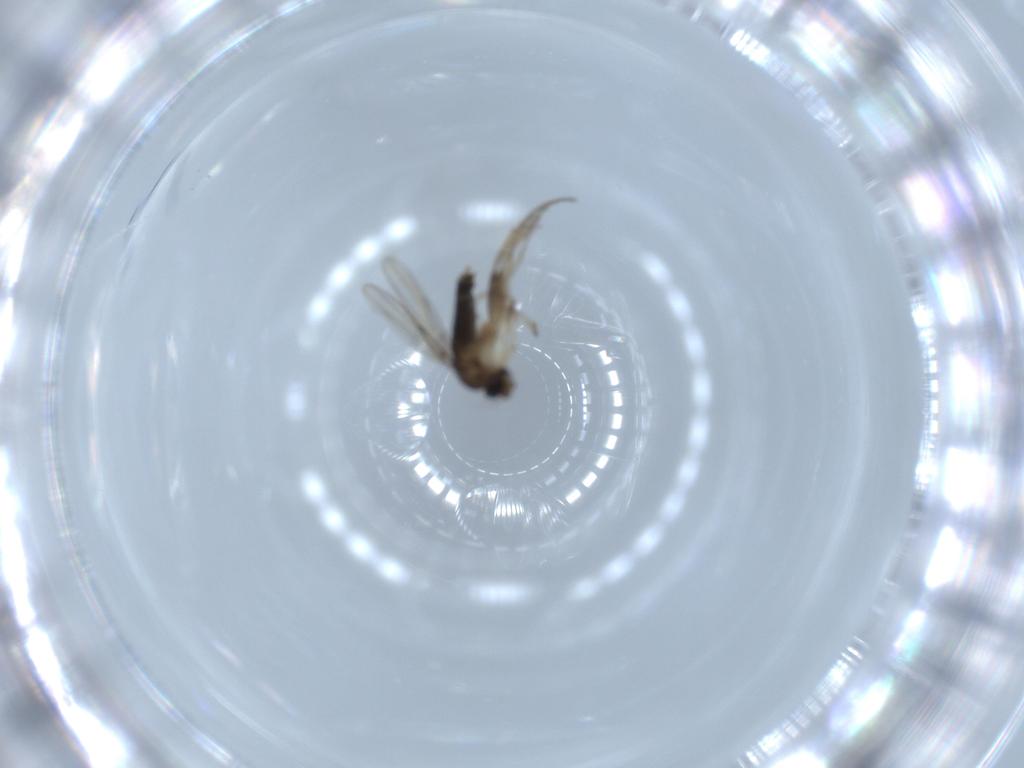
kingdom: Animalia
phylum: Arthropoda
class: Insecta
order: Diptera
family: Phoridae
